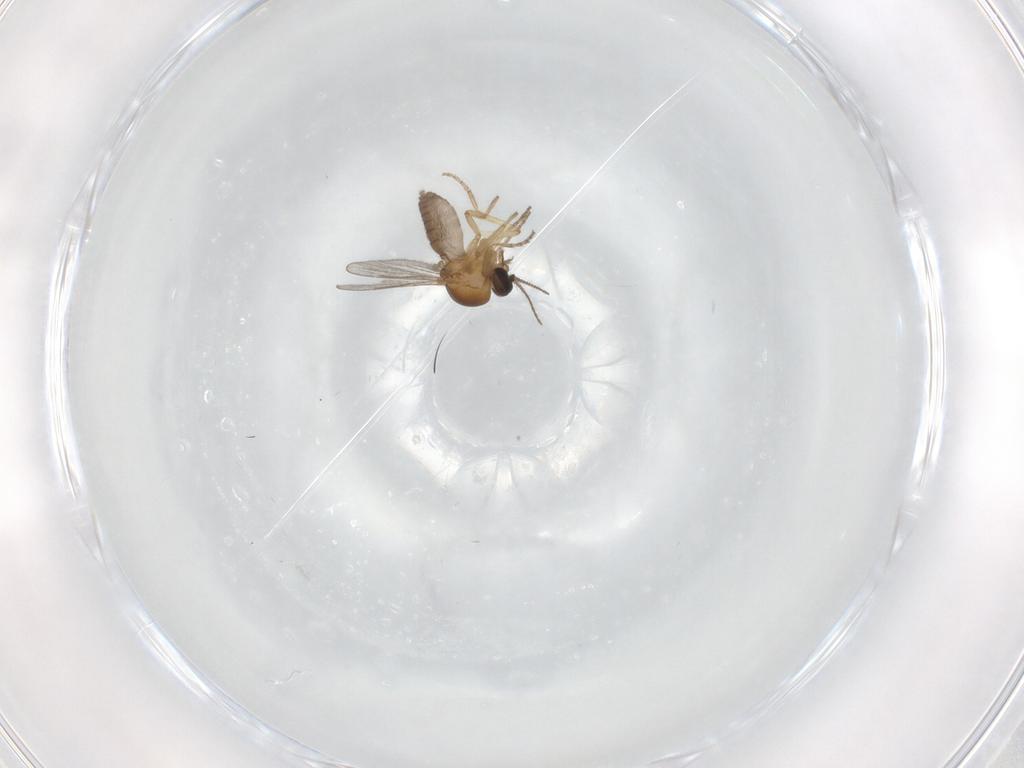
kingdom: Animalia
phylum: Arthropoda
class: Insecta
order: Diptera
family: Ceratopogonidae
